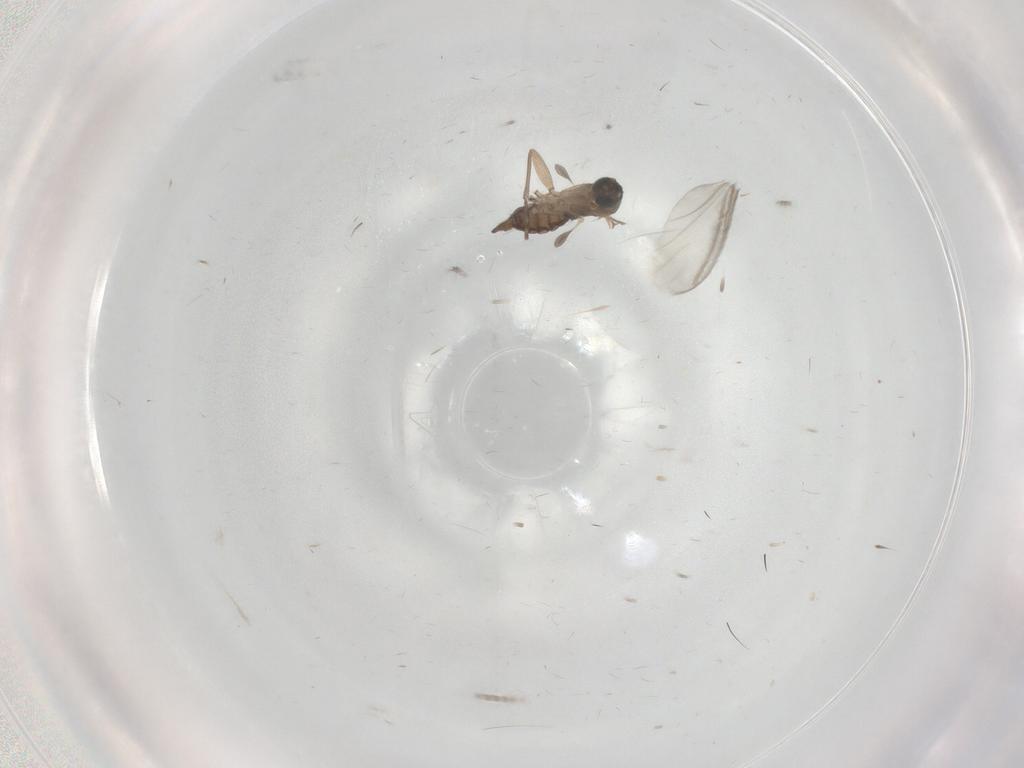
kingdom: Animalia
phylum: Arthropoda
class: Insecta
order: Diptera
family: Sciaridae
